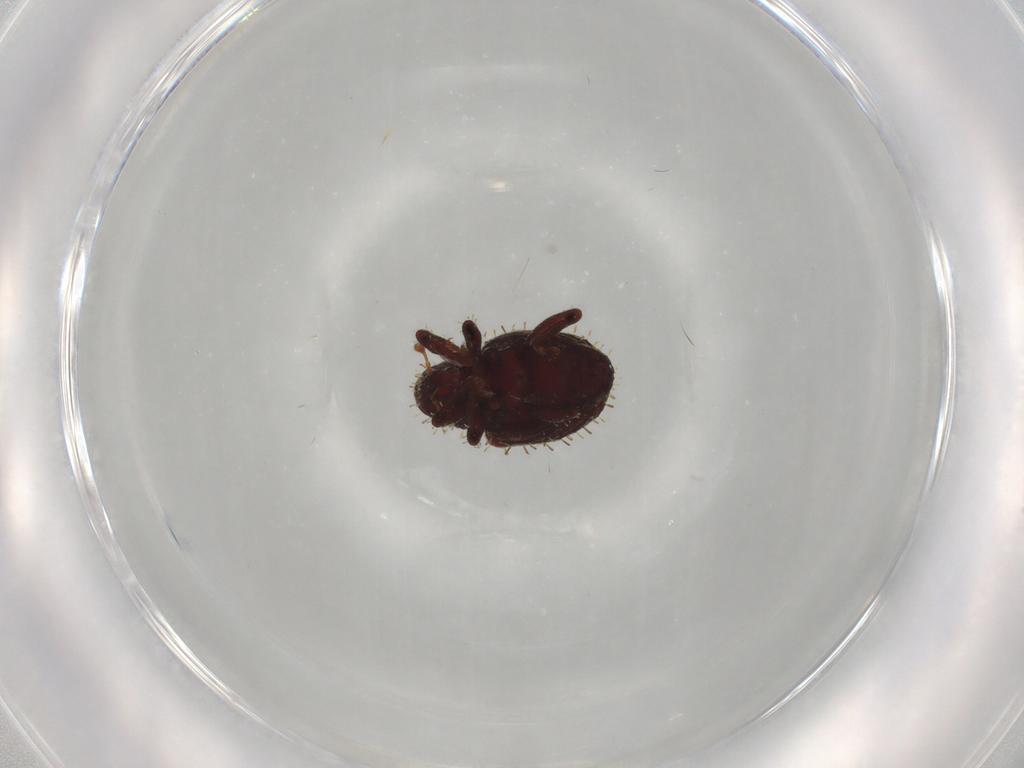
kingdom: Animalia
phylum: Arthropoda
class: Insecta
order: Coleoptera
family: Curculionidae
